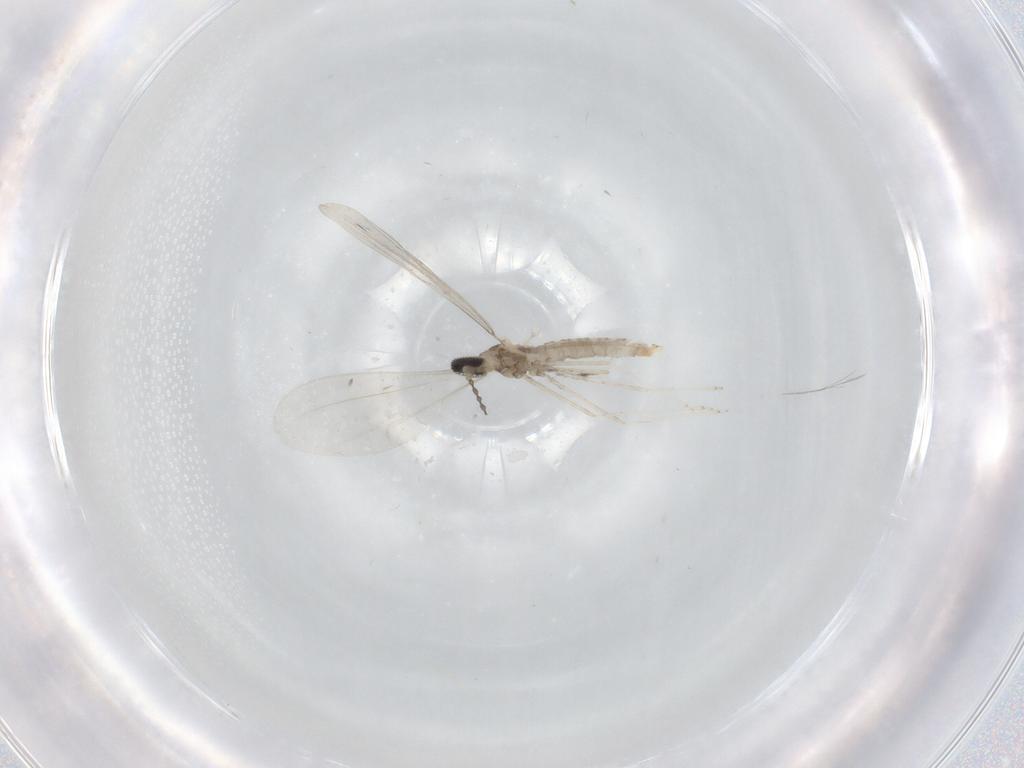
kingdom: Animalia
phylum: Arthropoda
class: Insecta
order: Diptera
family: Cecidomyiidae
